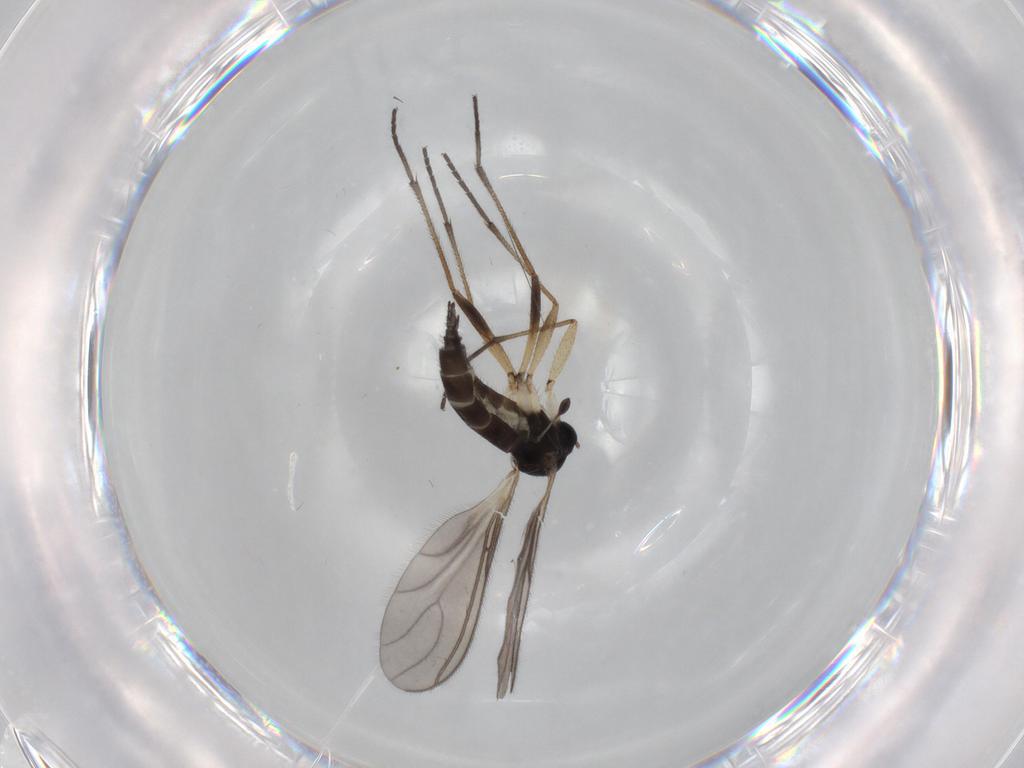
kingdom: Animalia
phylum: Arthropoda
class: Insecta
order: Diptera
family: Sciaridae
